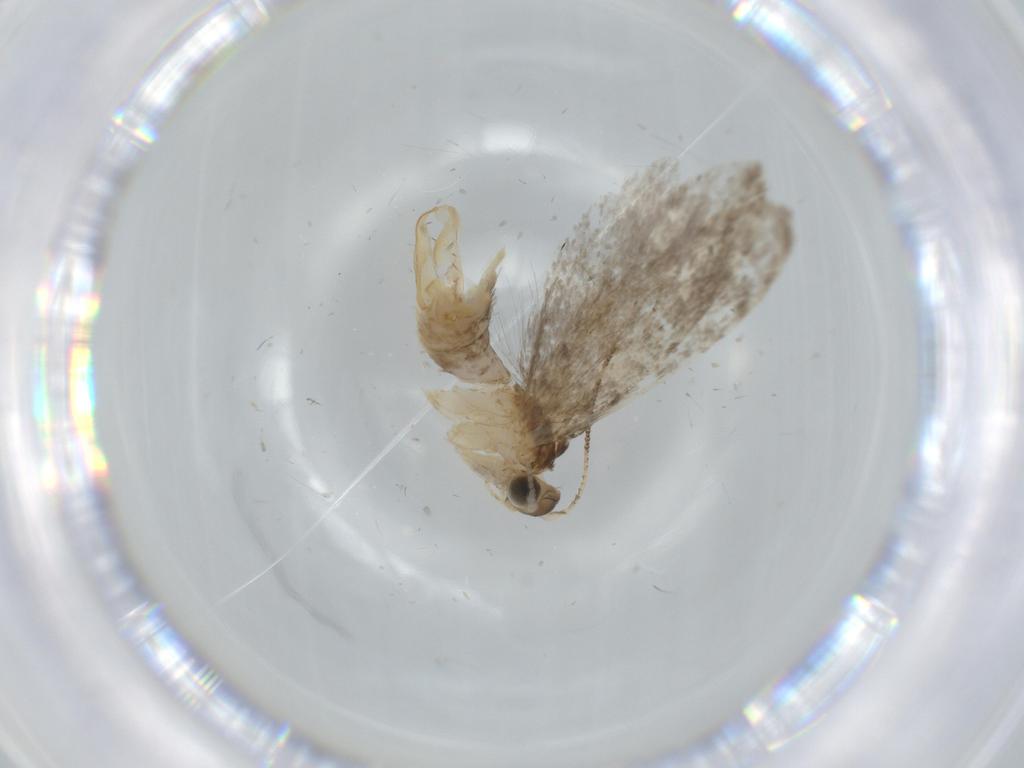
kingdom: Animalia
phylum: Arthropoda
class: Insecta
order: Lepidoptera
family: Tineidae
